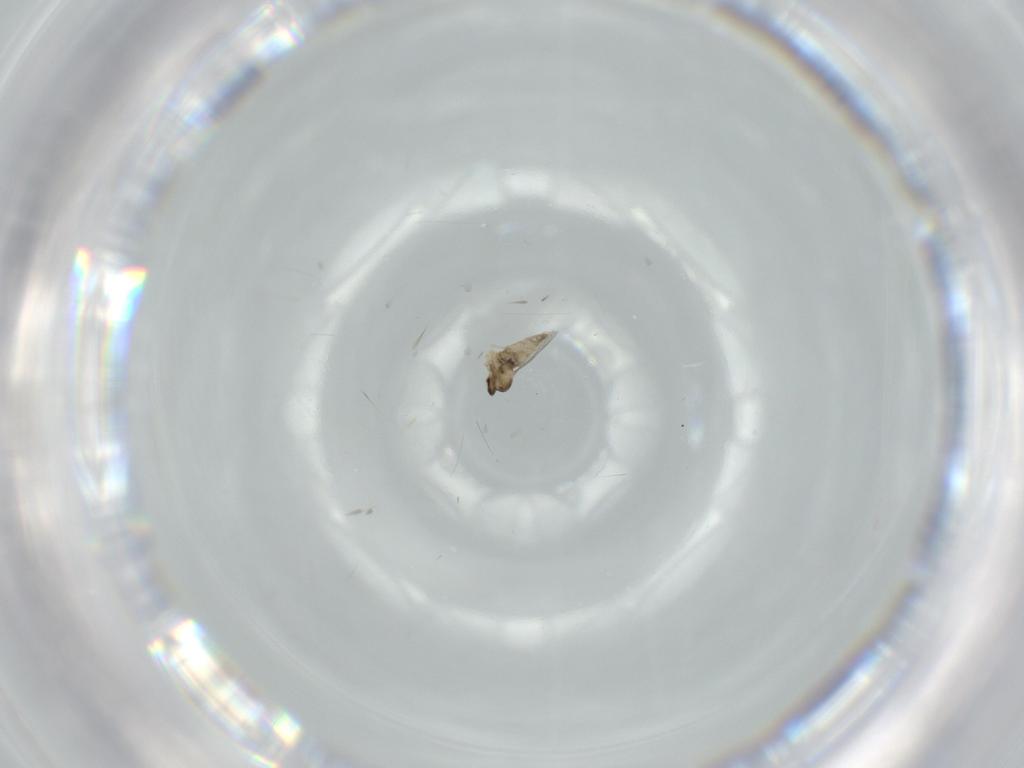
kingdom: Animalia
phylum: Arthropoda
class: Insecta
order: Diptera
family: Cecidomyiidae
